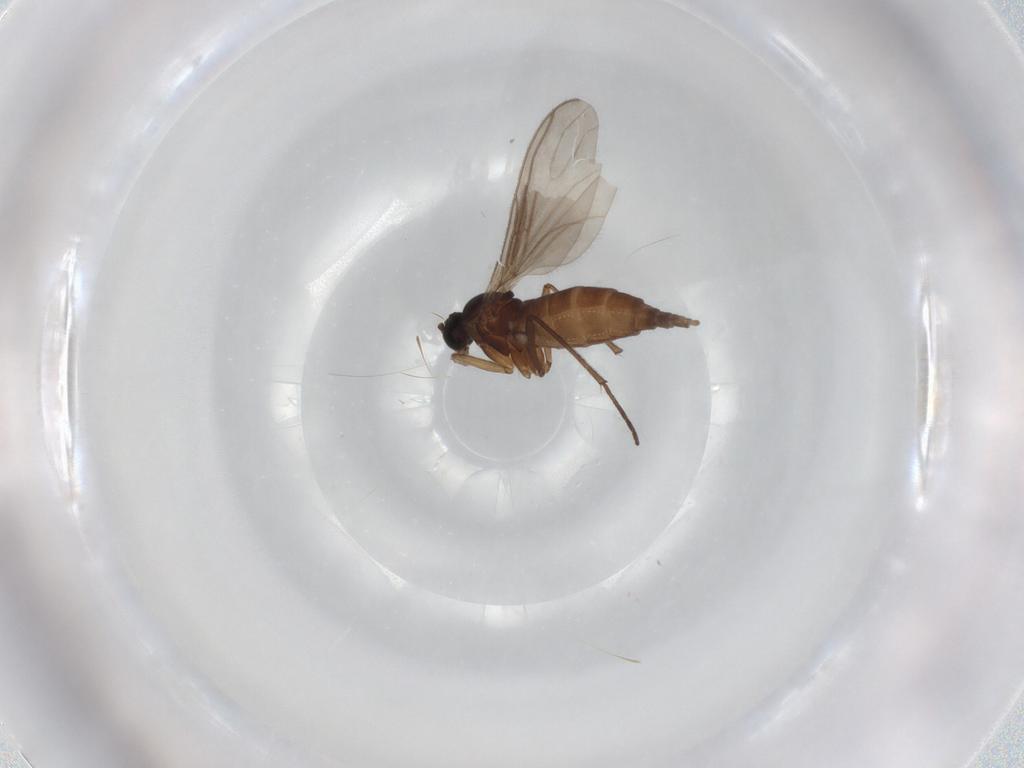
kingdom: Animalia
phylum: Arthropoda
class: Insecta
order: Diptera
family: Sciaridae
